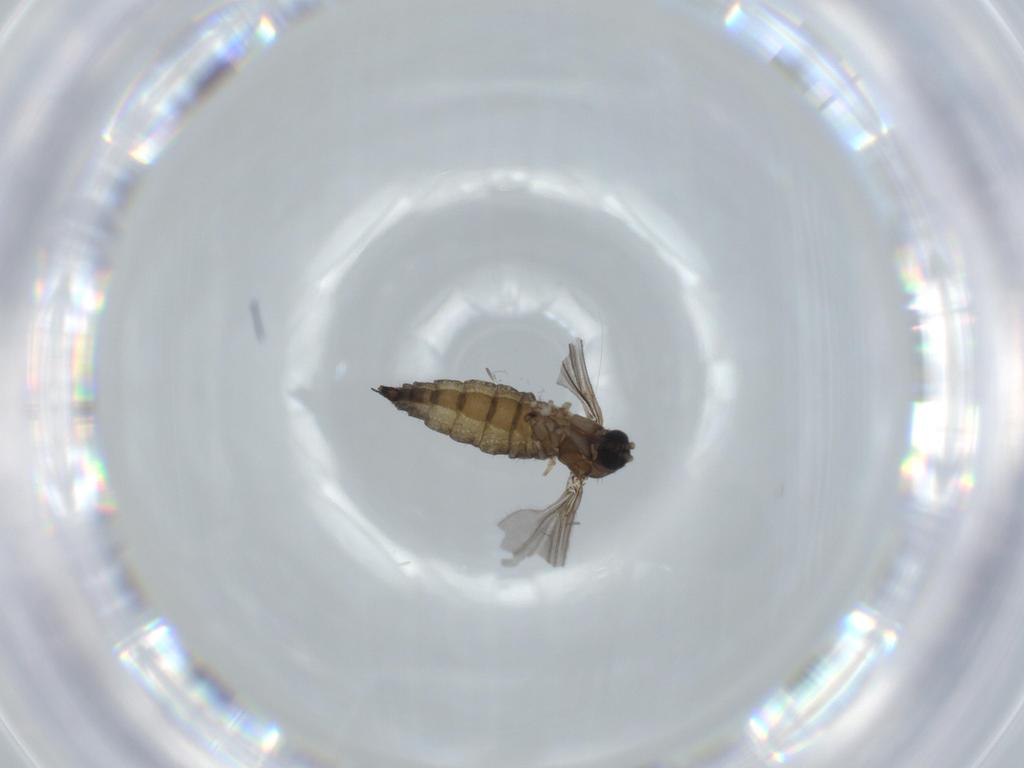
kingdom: Animalia
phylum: Arthropoda
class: Insecta
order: Diptera
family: Sciaridae
